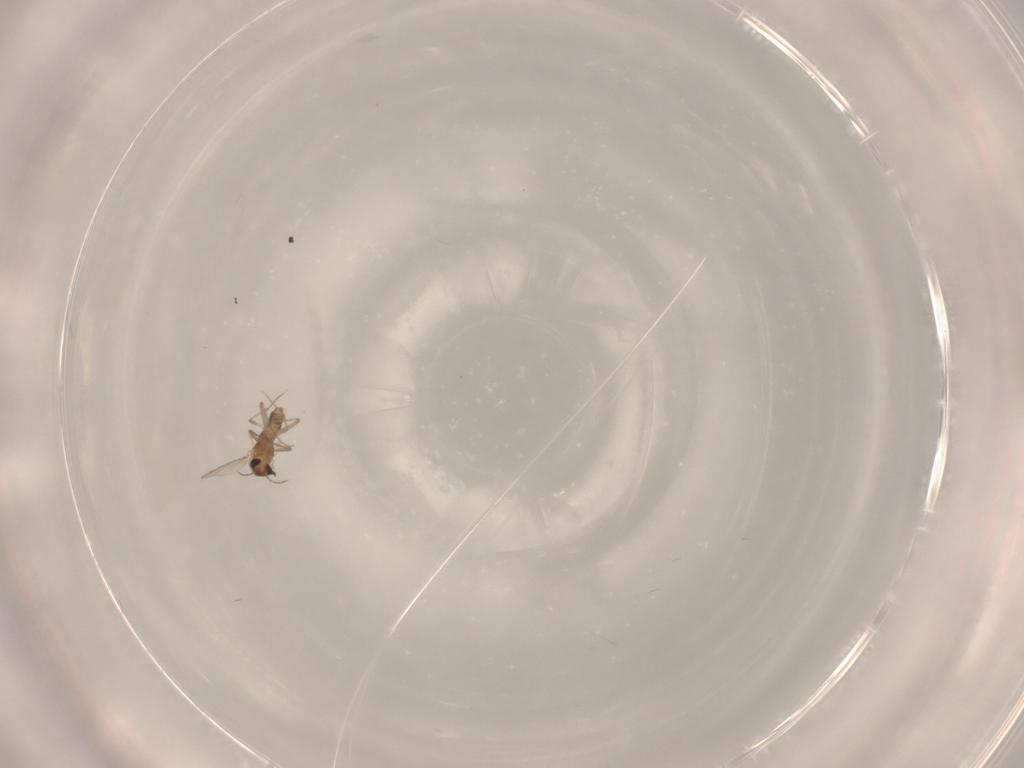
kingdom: Animalia
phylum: Arthropoda
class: Insecta
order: Diptera
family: Chironomidae
